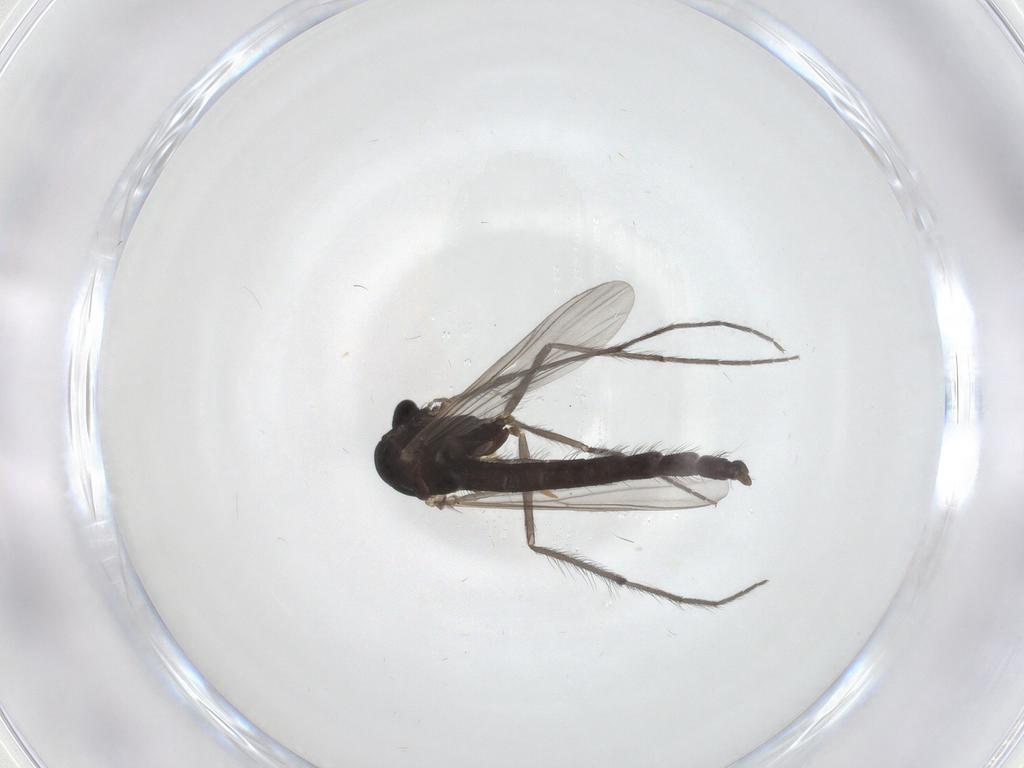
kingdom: Animalia
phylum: Arthropoda
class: Insecta
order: Diptera
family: Chironomidae
